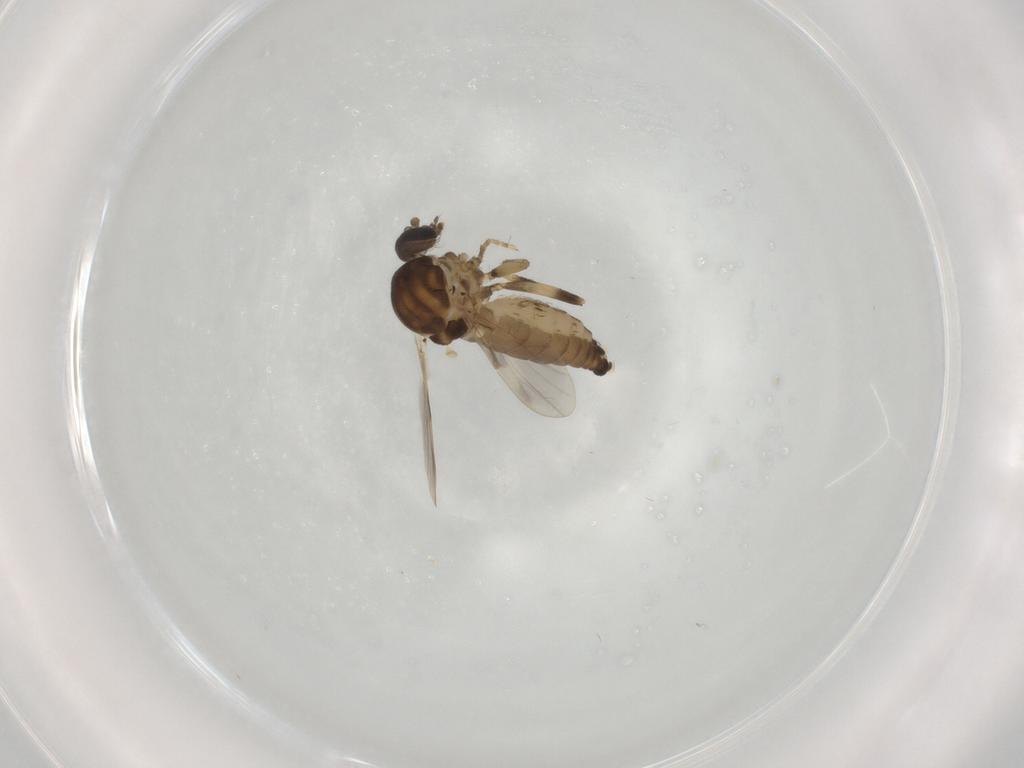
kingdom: Animalia
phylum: Arthropoda
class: Insecta
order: Diptera
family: Ceratopogonidae
